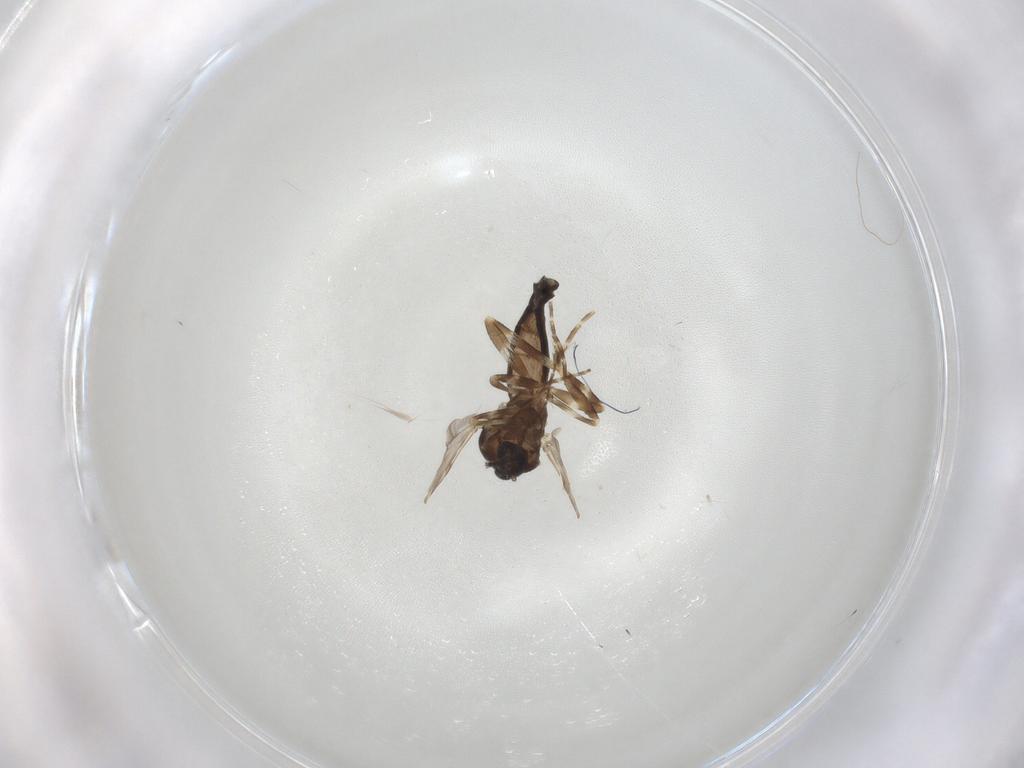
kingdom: Animalia
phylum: Arthropoda
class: Insecta
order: Diptera
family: Ceratopogonidae
